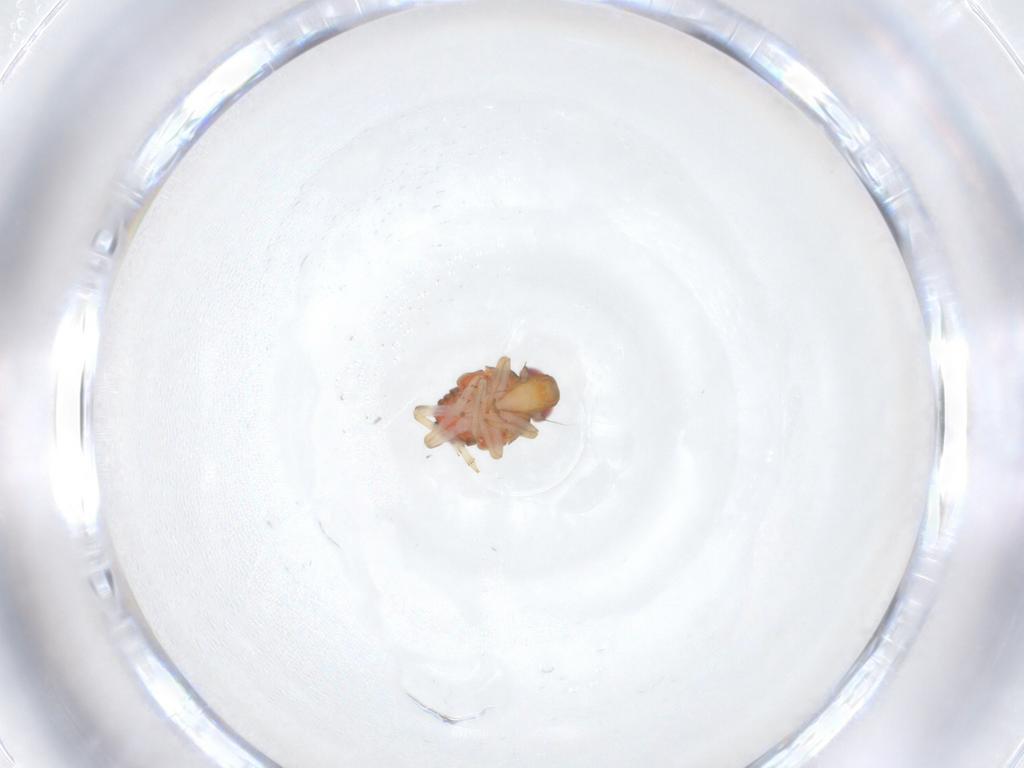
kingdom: Animalia
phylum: Arthropoda
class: Insecta
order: Hemiptera
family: Issidae
